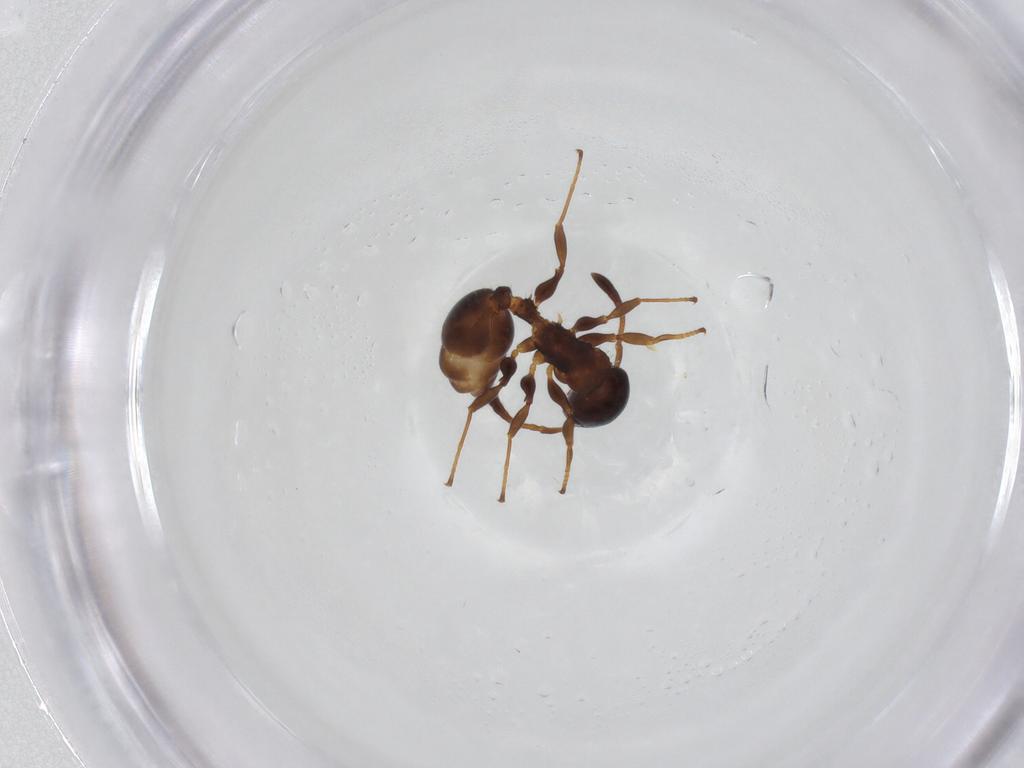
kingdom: Animalia
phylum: Arthropoda
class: Insecta
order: Hymenoptera
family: Formicidae
